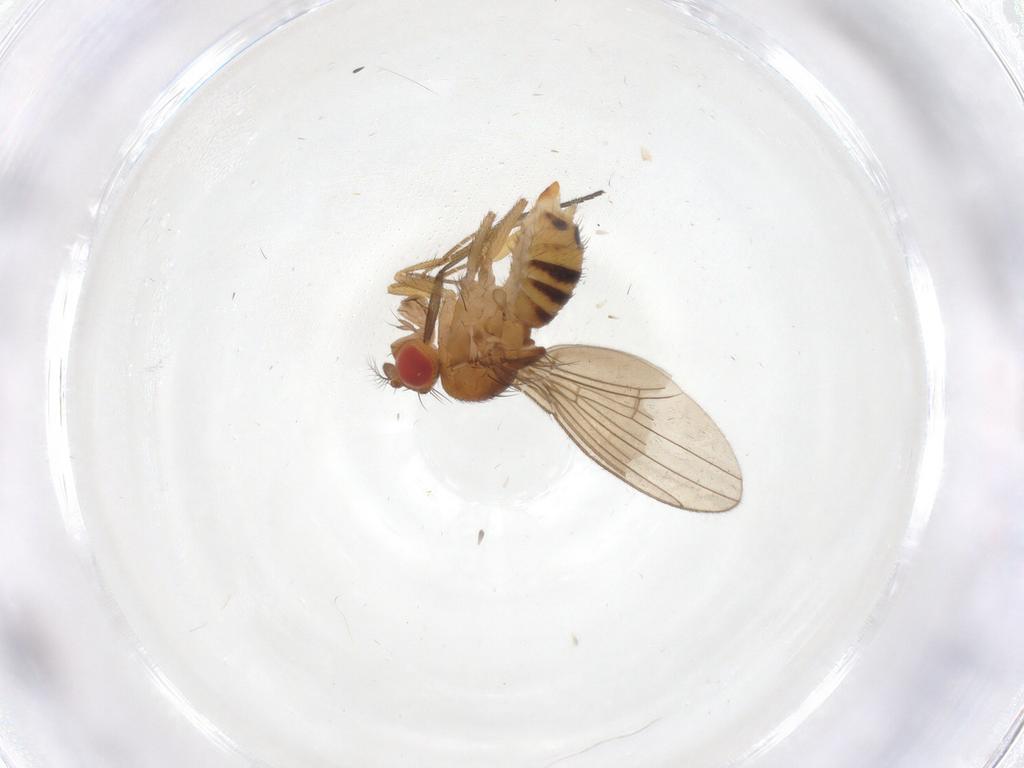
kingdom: Animalia
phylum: Arthropoda
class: Insecta
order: Diptera
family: Drosophilidae
